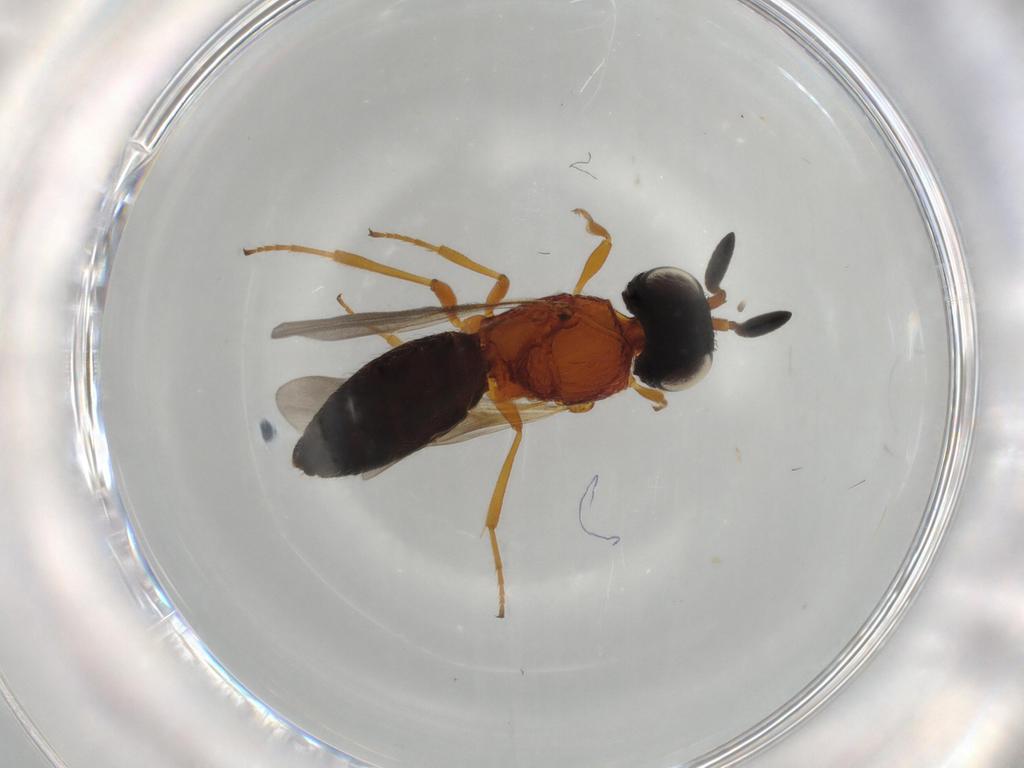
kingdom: Animalia
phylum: Arthropoda
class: Insecta
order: Hymenoptera
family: Scelionidae
